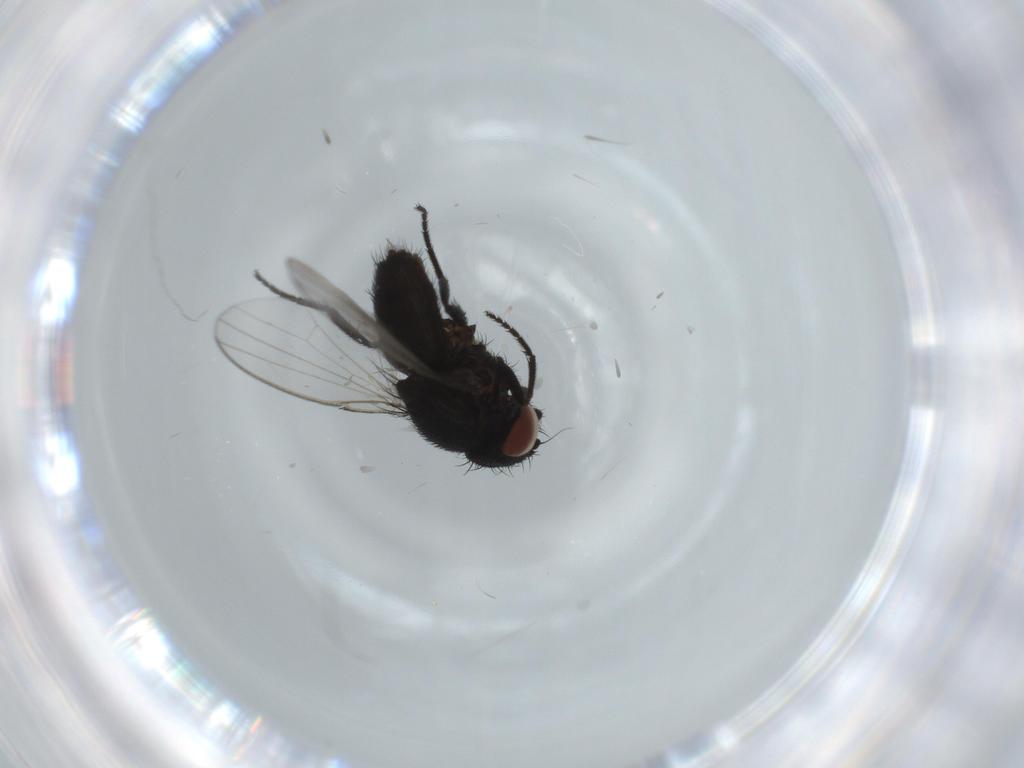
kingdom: Animalia
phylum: Arthropoda
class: Insecta
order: Diptera
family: Milichiidae
